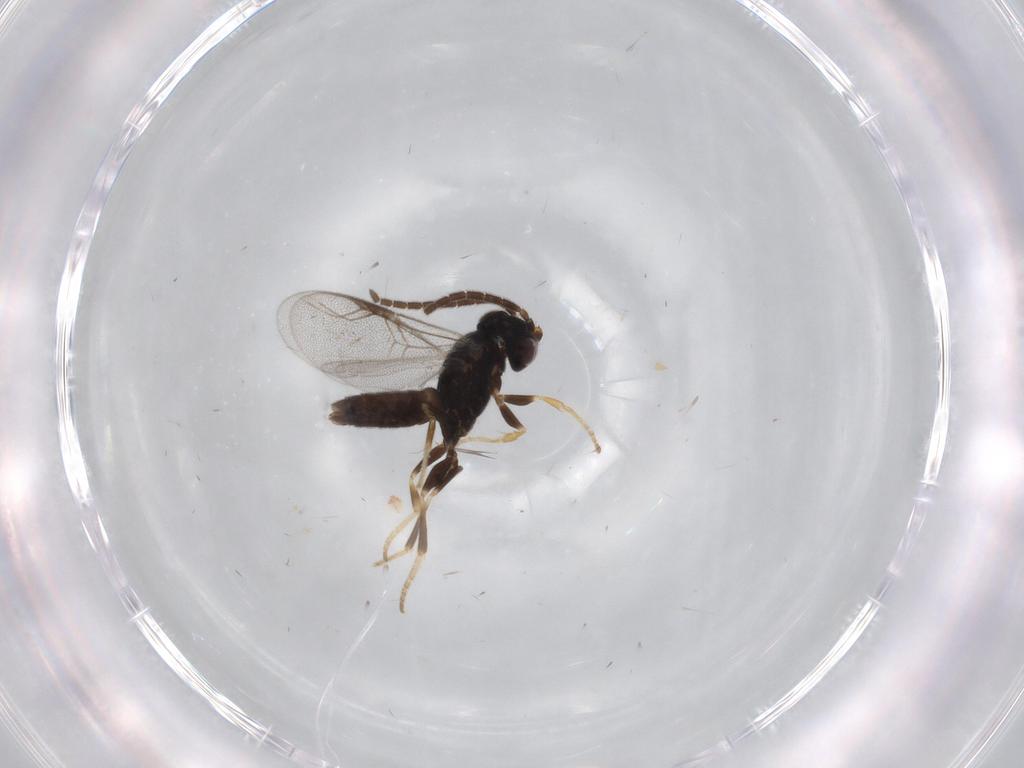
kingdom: Animalia
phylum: Arthropoda
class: Insecta
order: Hymenoptera
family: Dryinidae
